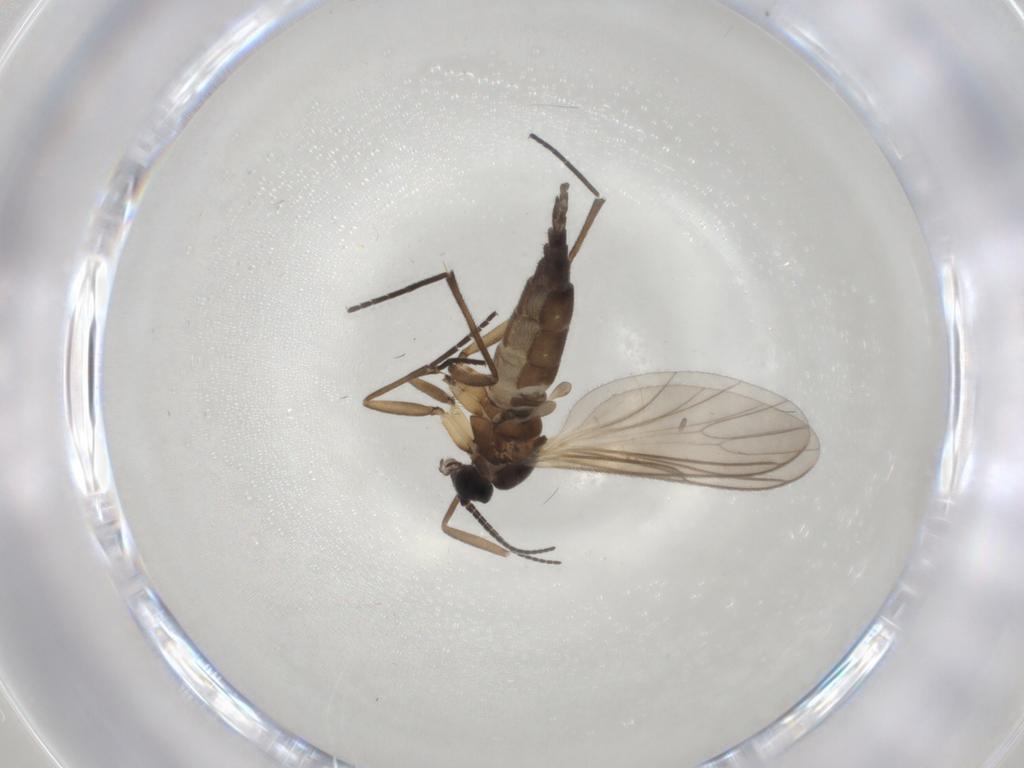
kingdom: Animalia
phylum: Arthropoda
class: Insecta
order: Diptera
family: Sciaridae
